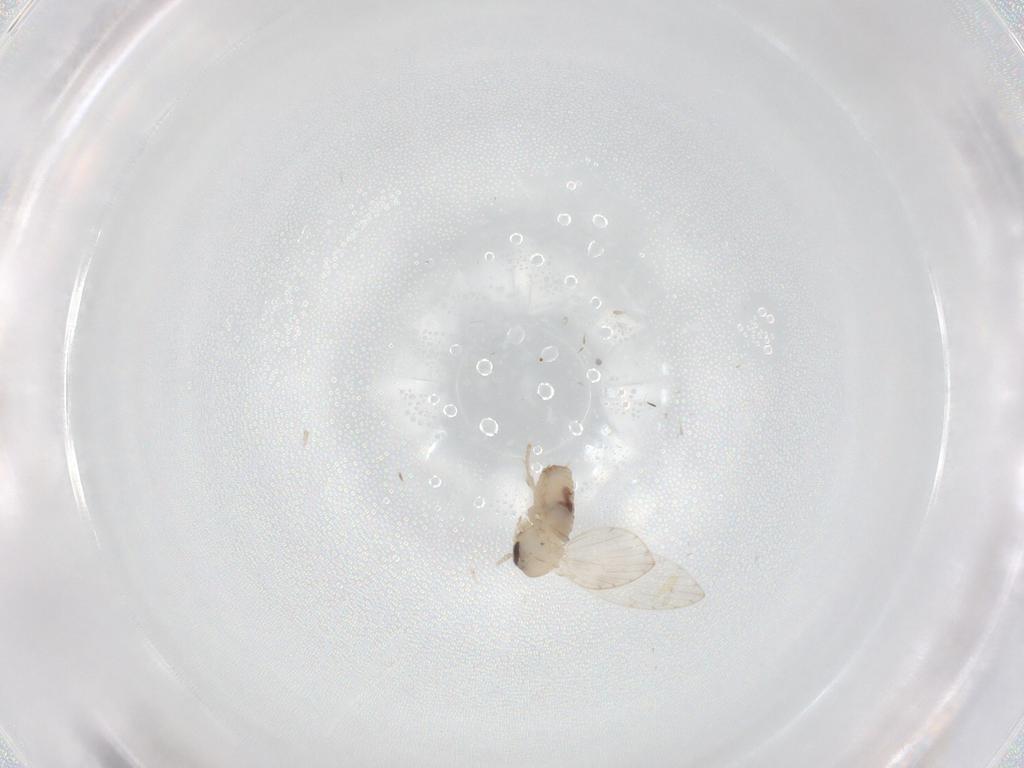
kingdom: Animalia
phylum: Arthropoda
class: Insecta
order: Diptera
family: Psychodidae
